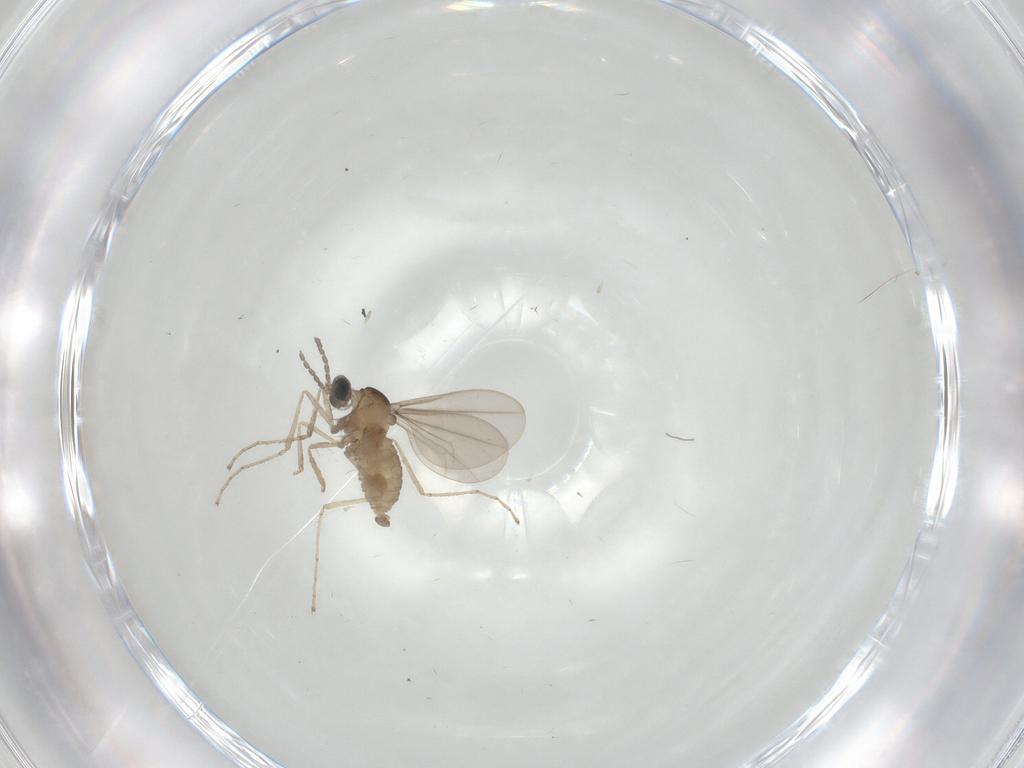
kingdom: Animalia
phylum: Arthropoda
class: Insecta
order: Diptera
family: Cecidomyiidae
